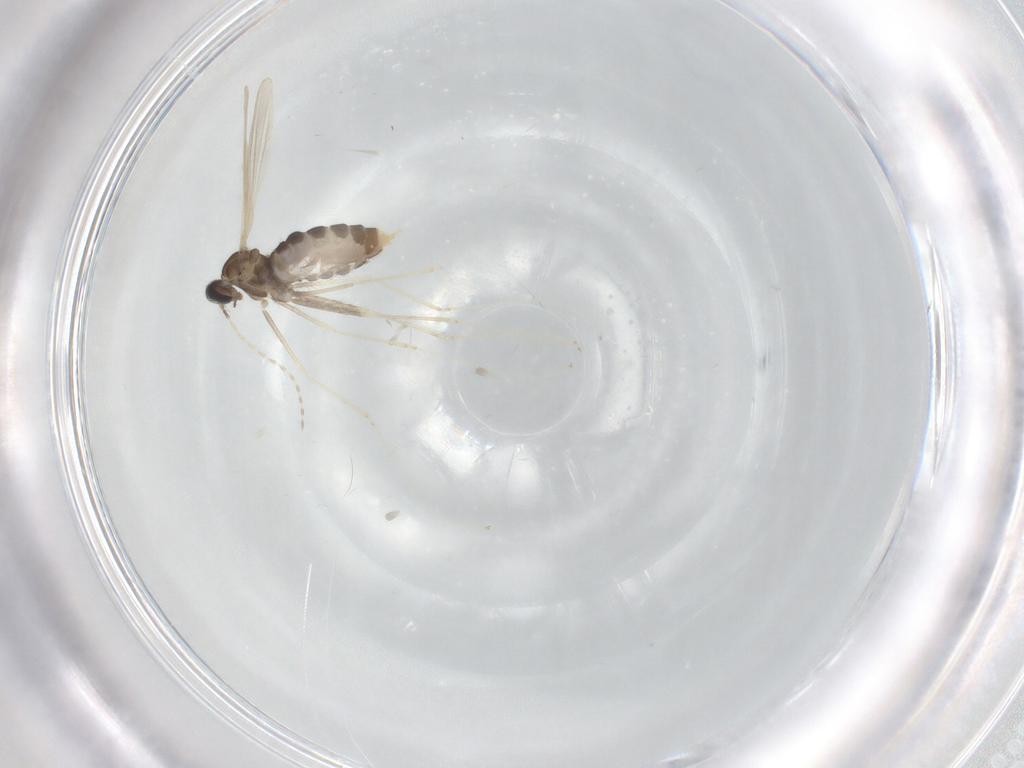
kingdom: Animalia
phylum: Arthropoda
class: Insecta
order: Diptera
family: Cecidomyiidae
